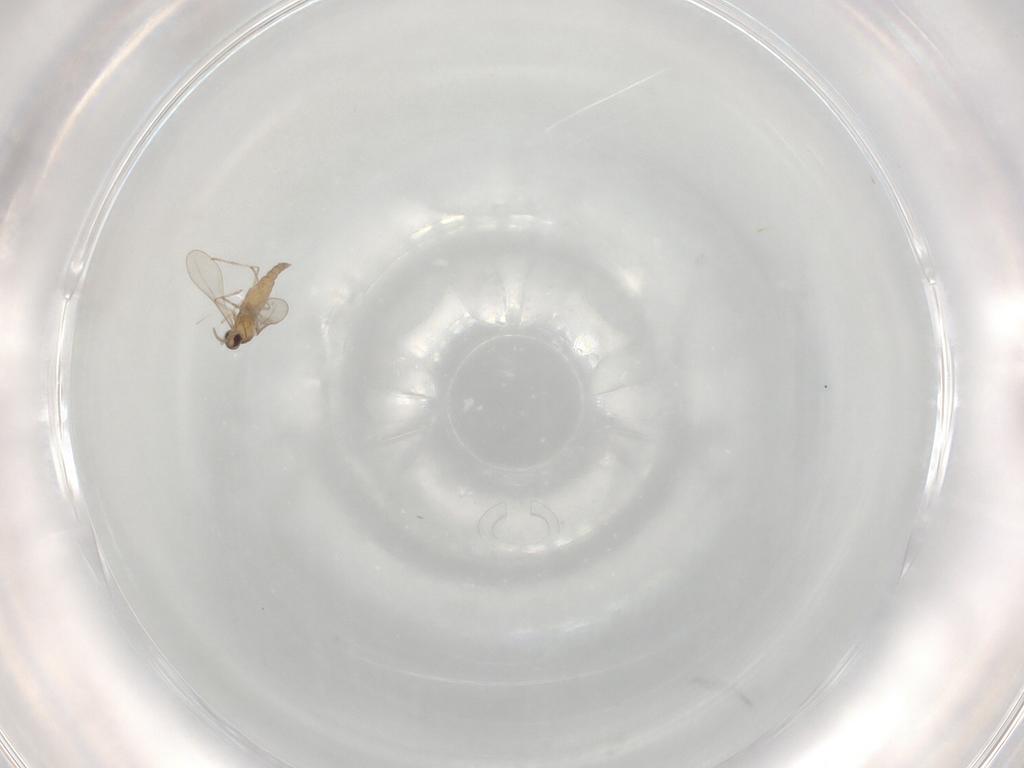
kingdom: Animalia
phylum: Arthropoda
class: Insecta
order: Diptera
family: Cecidomyiidae
